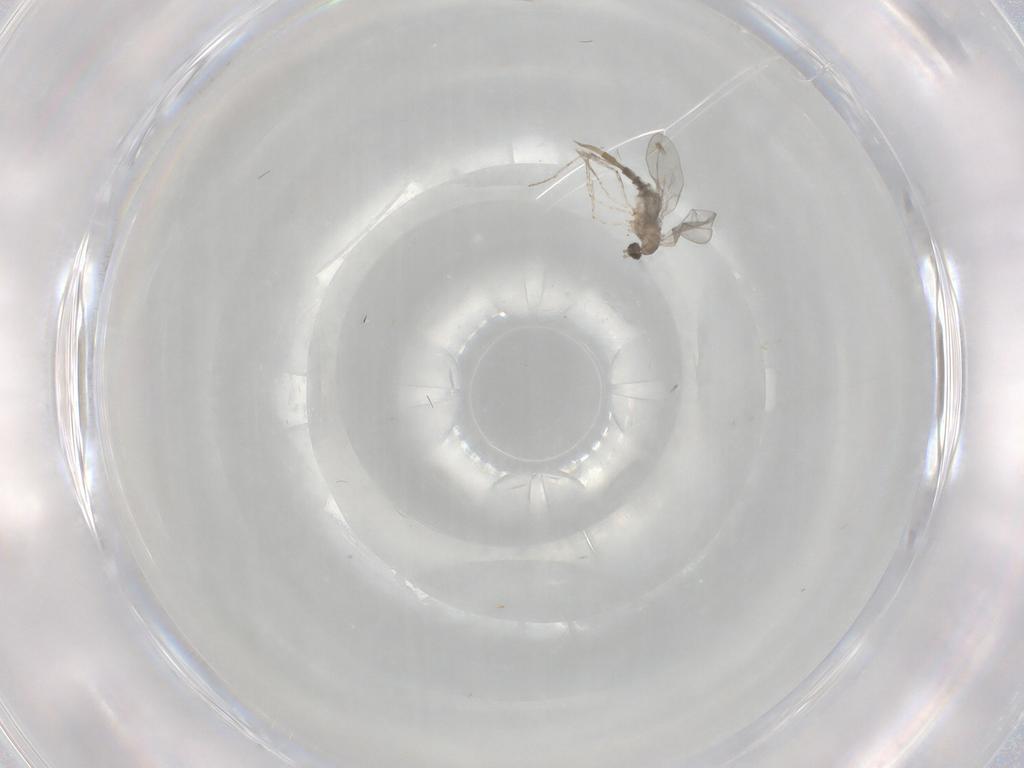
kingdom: Animalia
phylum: Arthropoda
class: Insecta
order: Diptera
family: Cecidomyiidae
